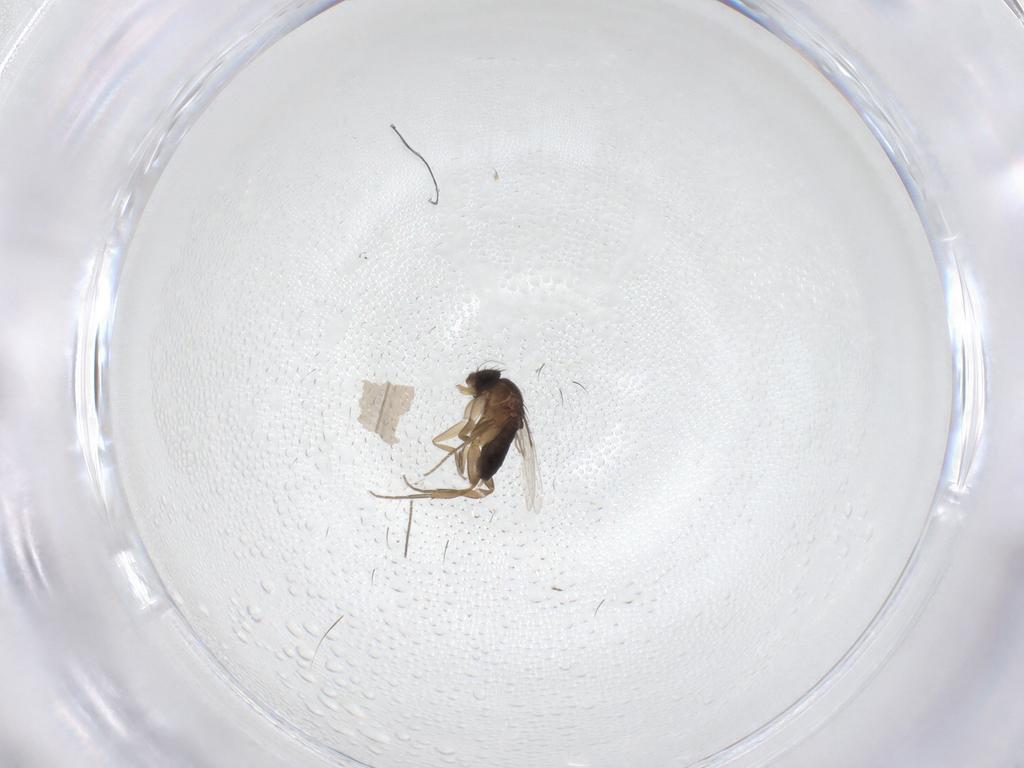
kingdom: Animalia
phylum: Arthropoda
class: Insecta
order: Diptera
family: Phoridae
